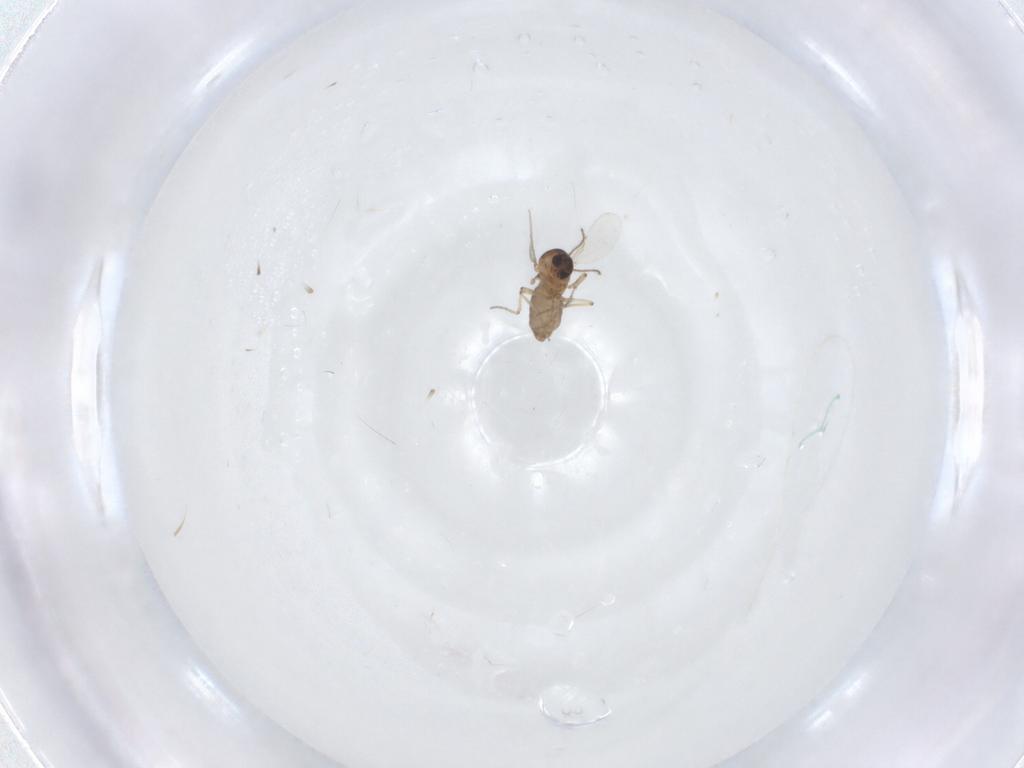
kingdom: Animalia
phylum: Arthropoda
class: Insecta
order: Diptera
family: Ceratopogonidae
